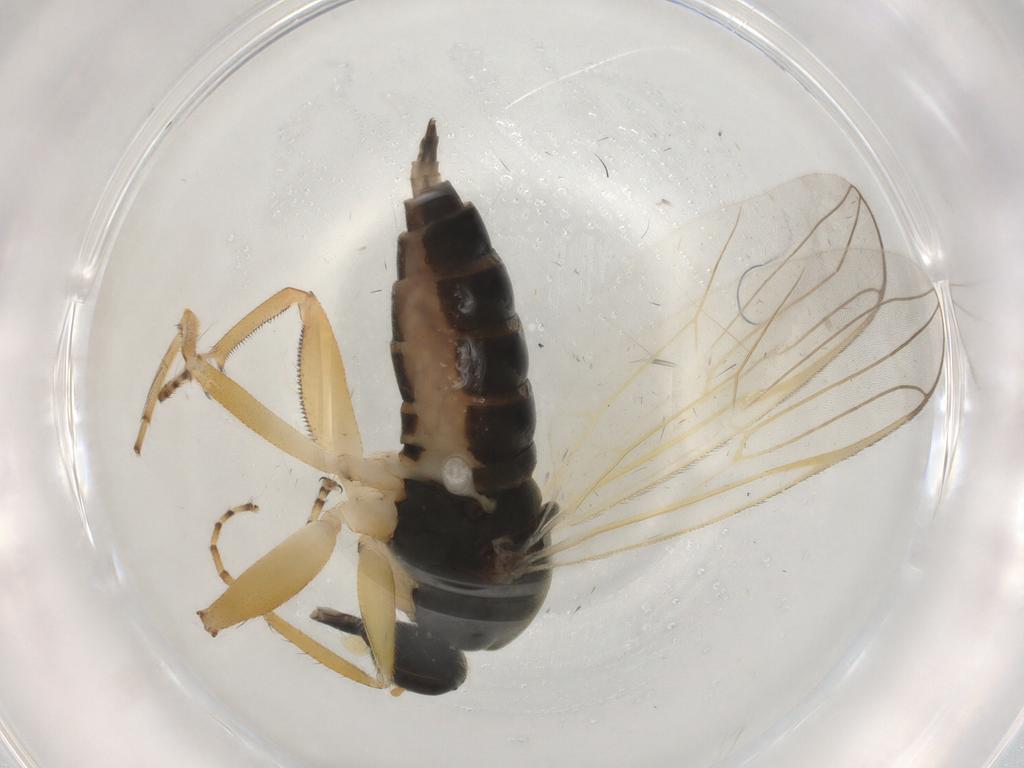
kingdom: Animalia
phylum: Arthropoda
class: Insecta
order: Diptera
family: Hybotidae
